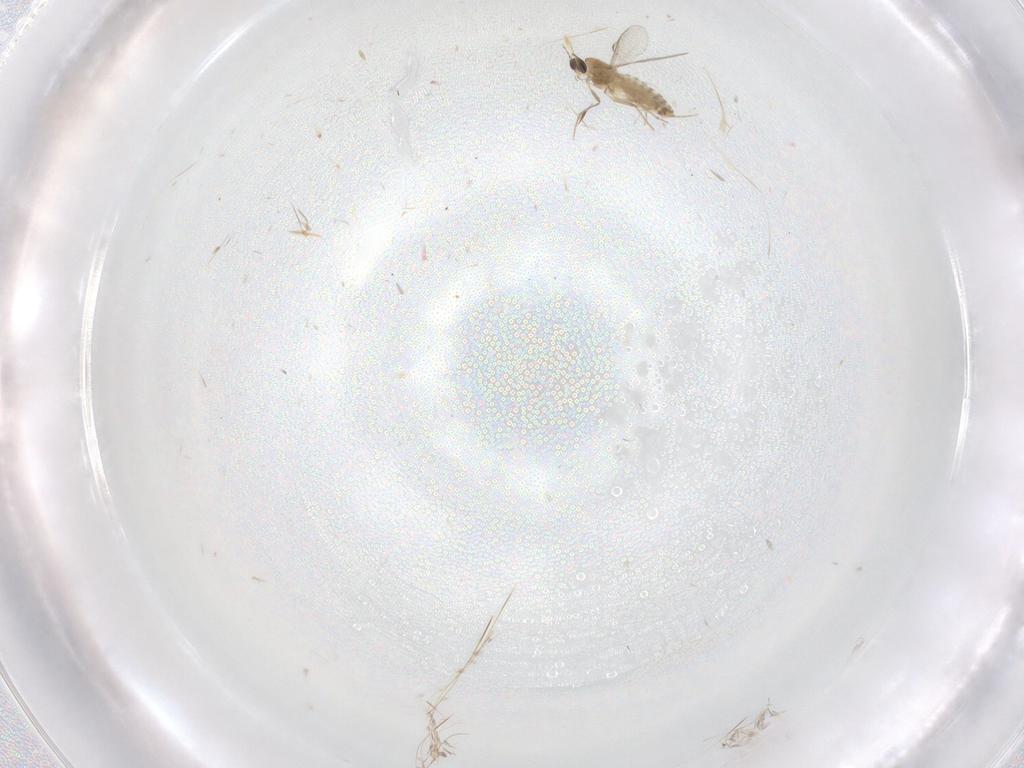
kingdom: Animalia
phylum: Arthropoda
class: Insecta
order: Diptera
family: Chironomidae
